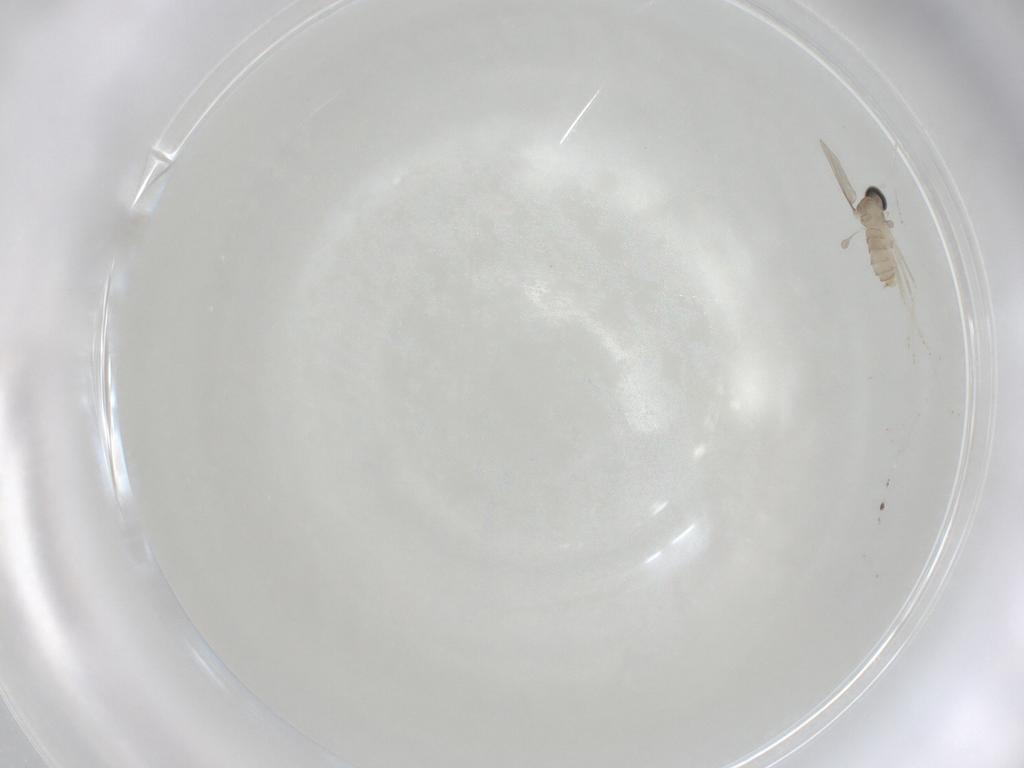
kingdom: Animalia
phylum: Arthropoda
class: Insecta
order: Diptera
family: Cecidomyiidae
